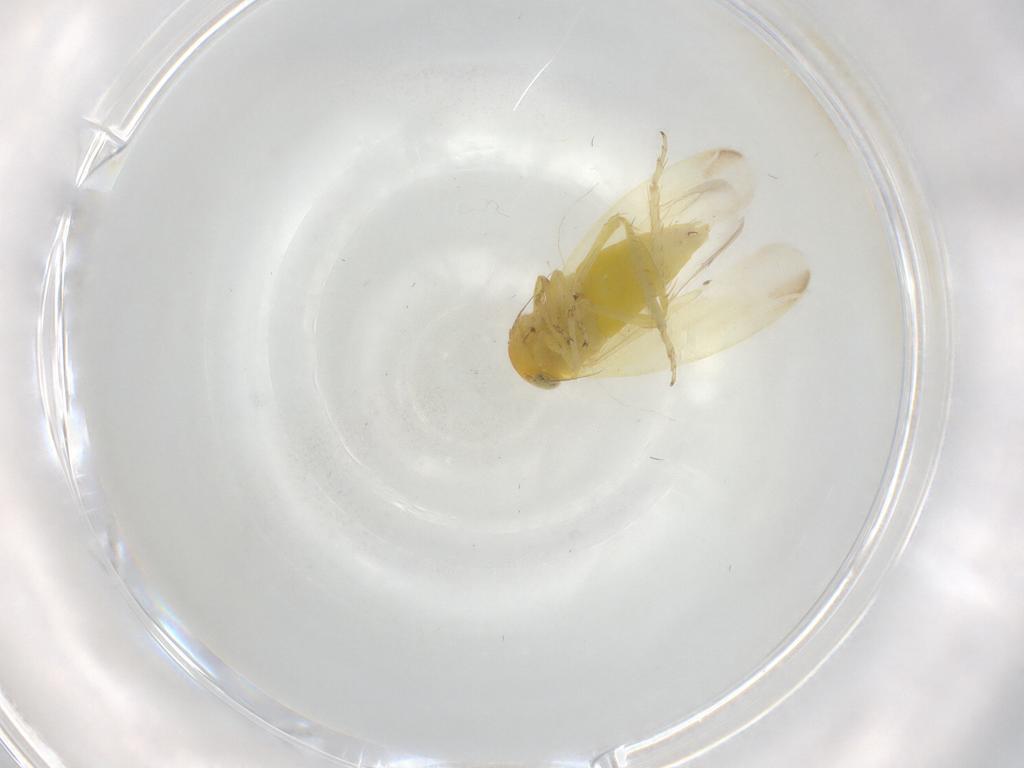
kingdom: Animalia
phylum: Arthropoda
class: Insecta
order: Hemiptera
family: Cicadellidae
